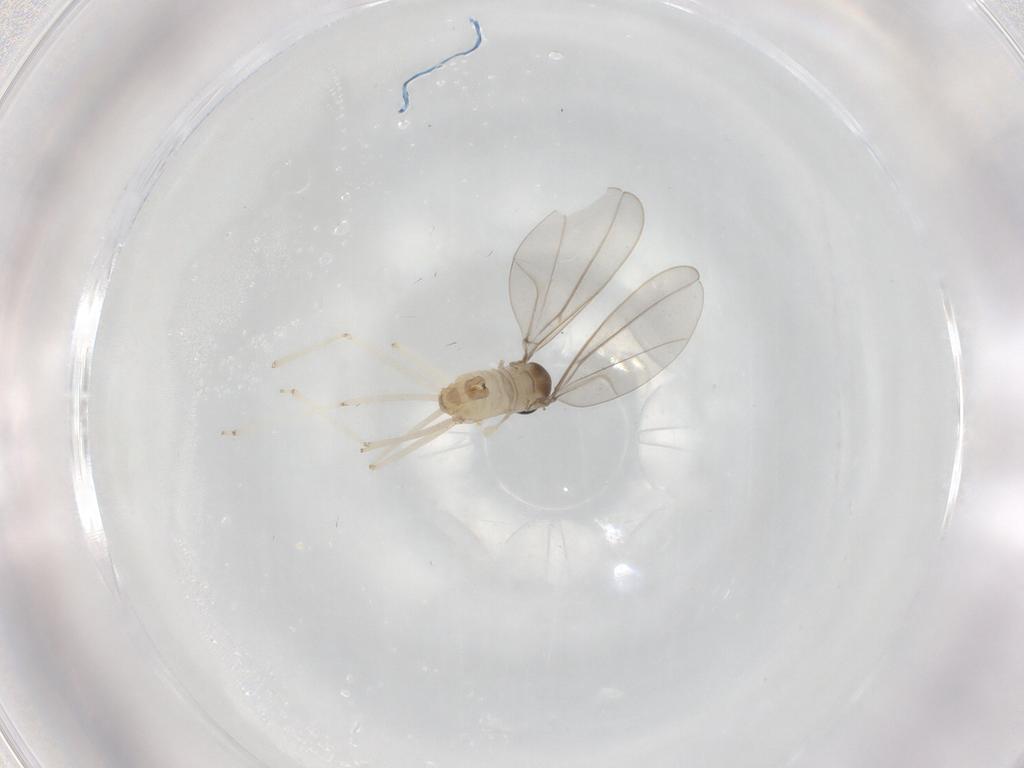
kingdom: Animalia
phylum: Arthropoda
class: Insecta
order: Diptera
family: Cecidomyiidae
